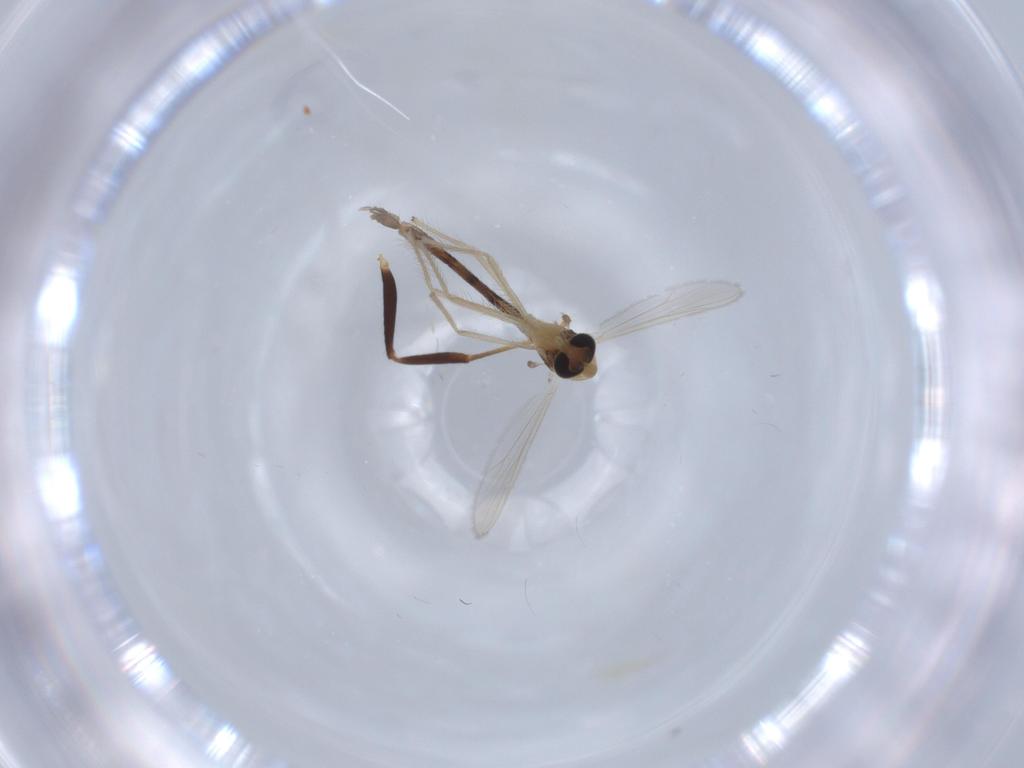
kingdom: Animalia
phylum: Arthropoda
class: Insecta
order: Diptera
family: Chironomidae
